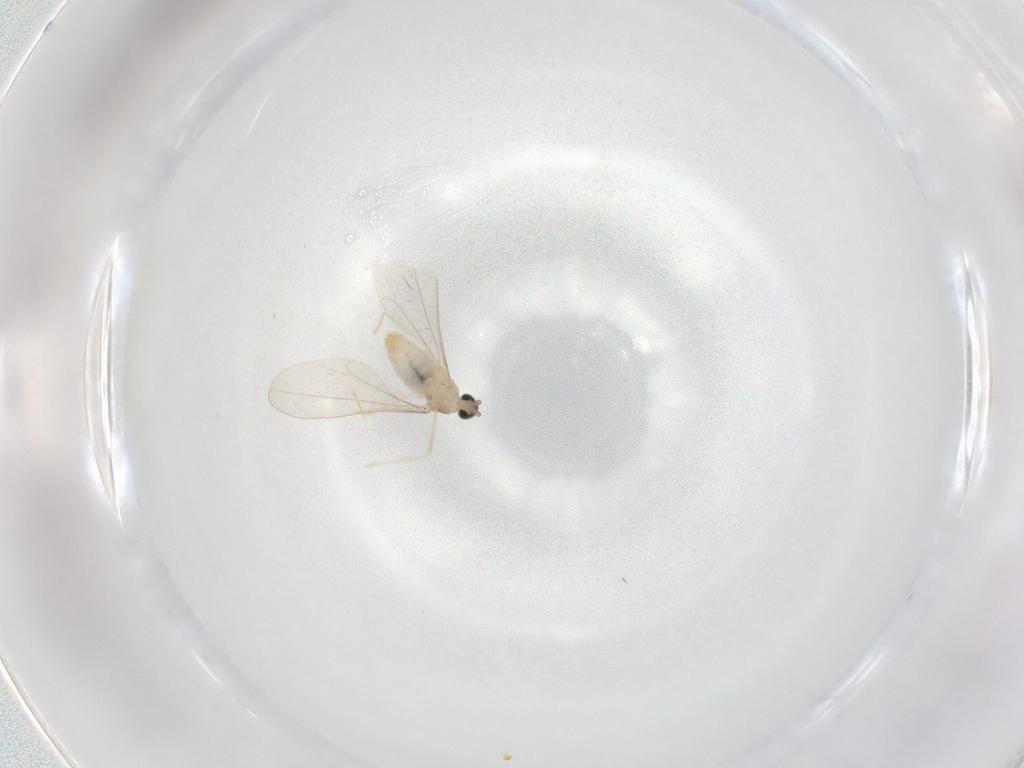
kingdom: Animalia
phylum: Arthropoda
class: Insecta
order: Diptera
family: Cecidomyiidae
